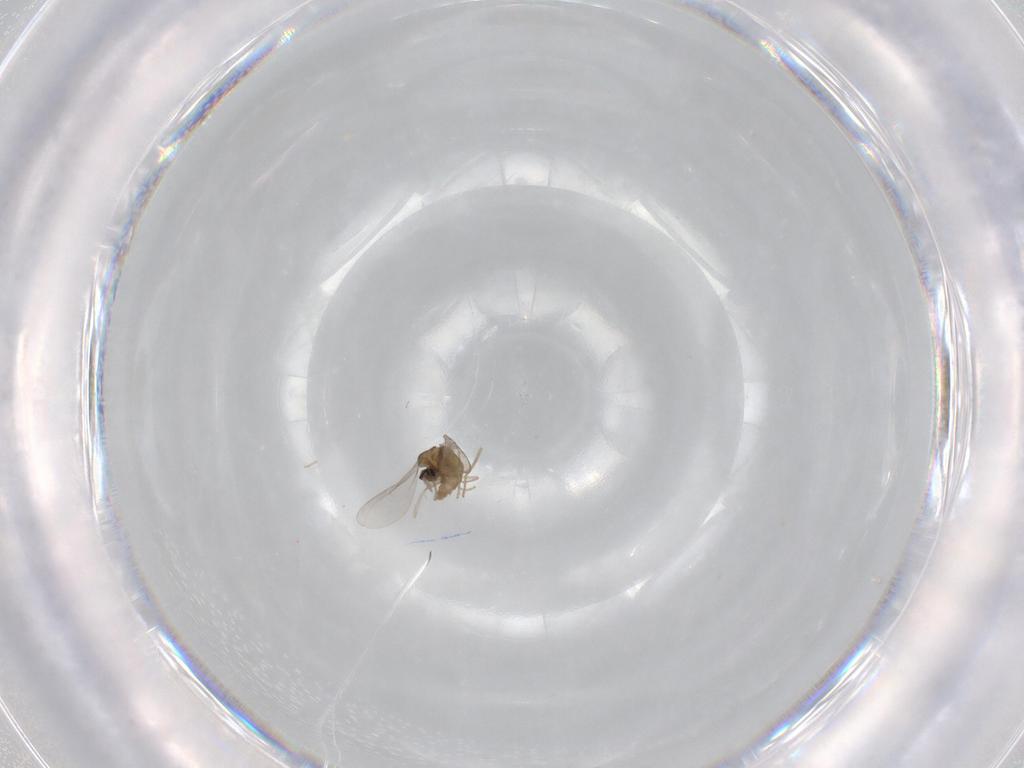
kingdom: Animalia
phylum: Arthropoda
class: Insecta
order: Diptera
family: Cecidomyiidae
